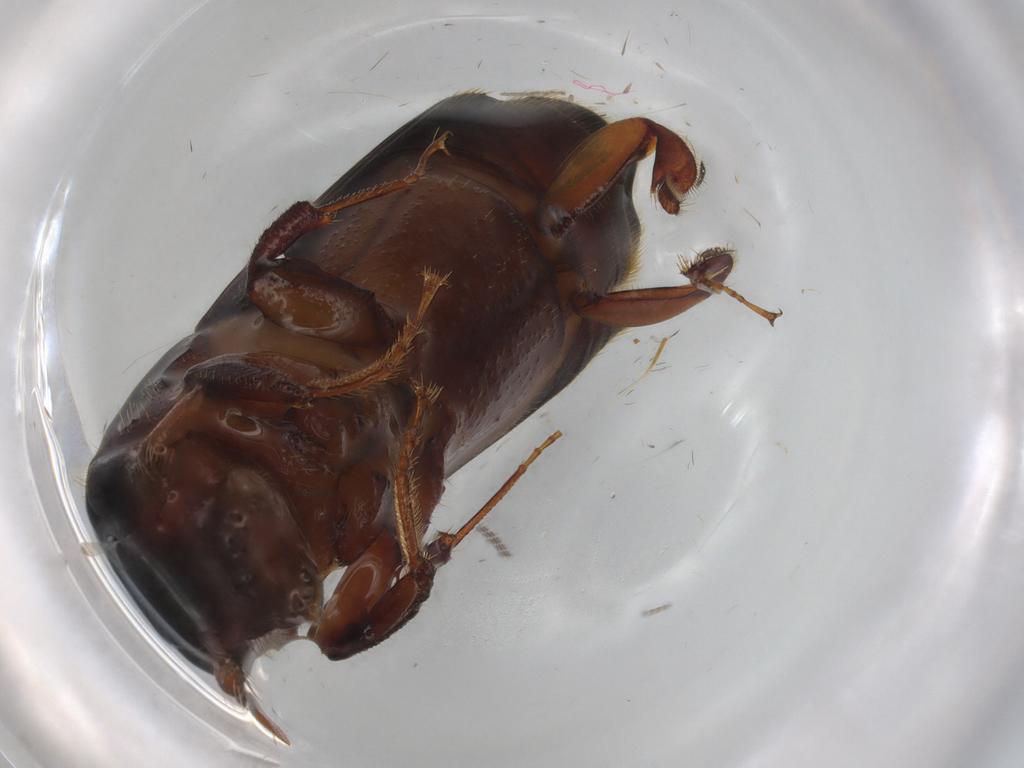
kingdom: Animalia
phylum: Arthropoda
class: Insecta
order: Coleoptera
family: Curculionidae
